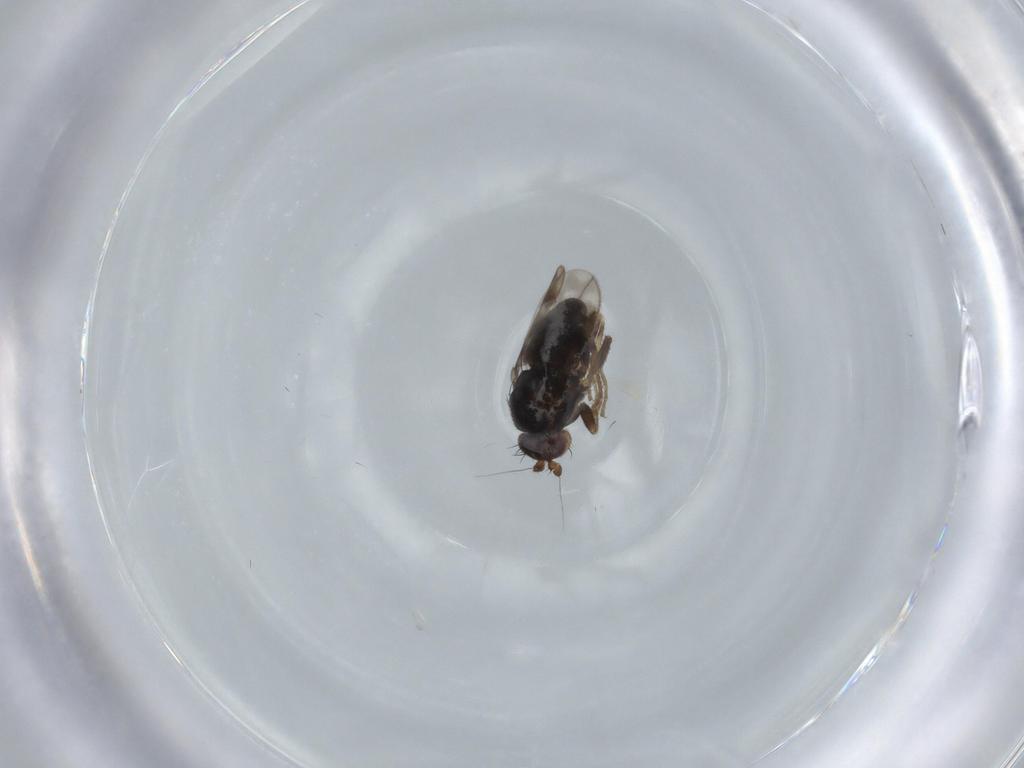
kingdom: Animalia
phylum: Arthropoda
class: Insecta
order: Diptera
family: Sphaeroceridae
